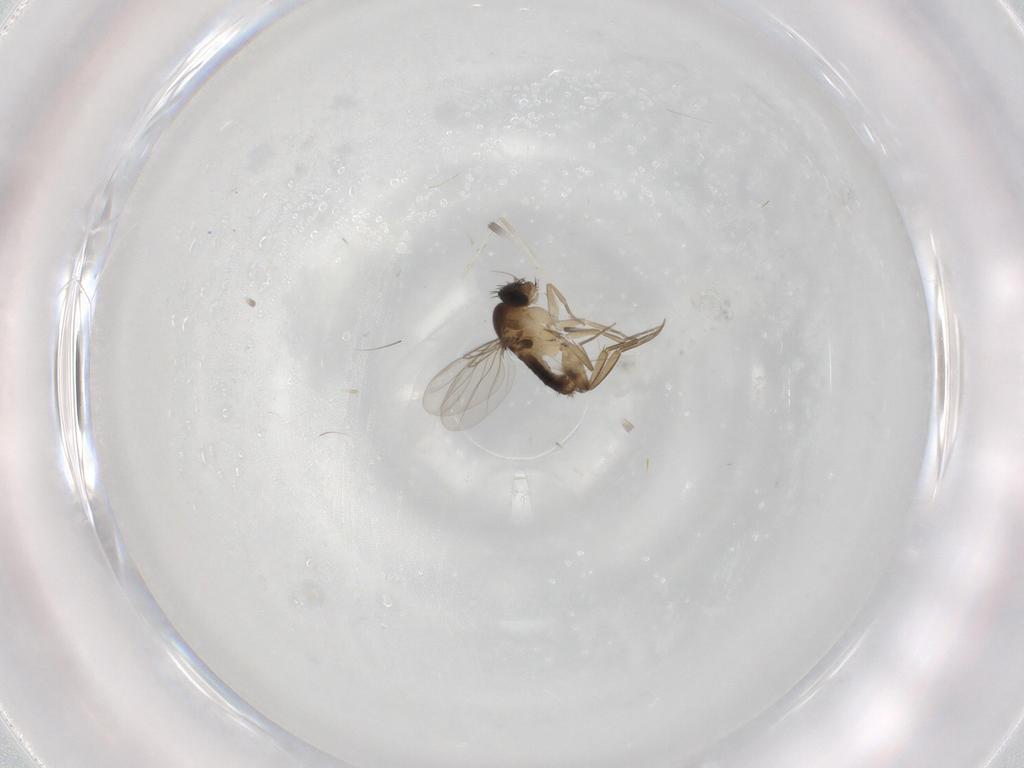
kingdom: Animalia
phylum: Arthropoda
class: Insecta
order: Diptera
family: Phoridae
